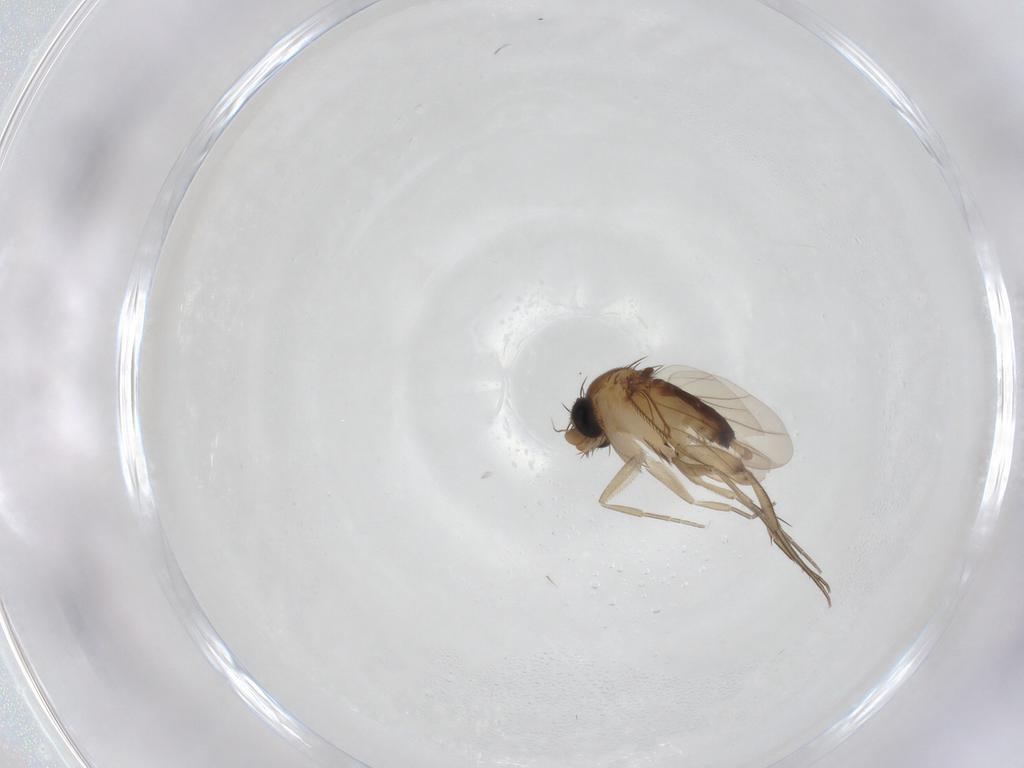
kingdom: Animalia
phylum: Arthropoda
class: Insecta
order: Diptera
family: Phoridae
